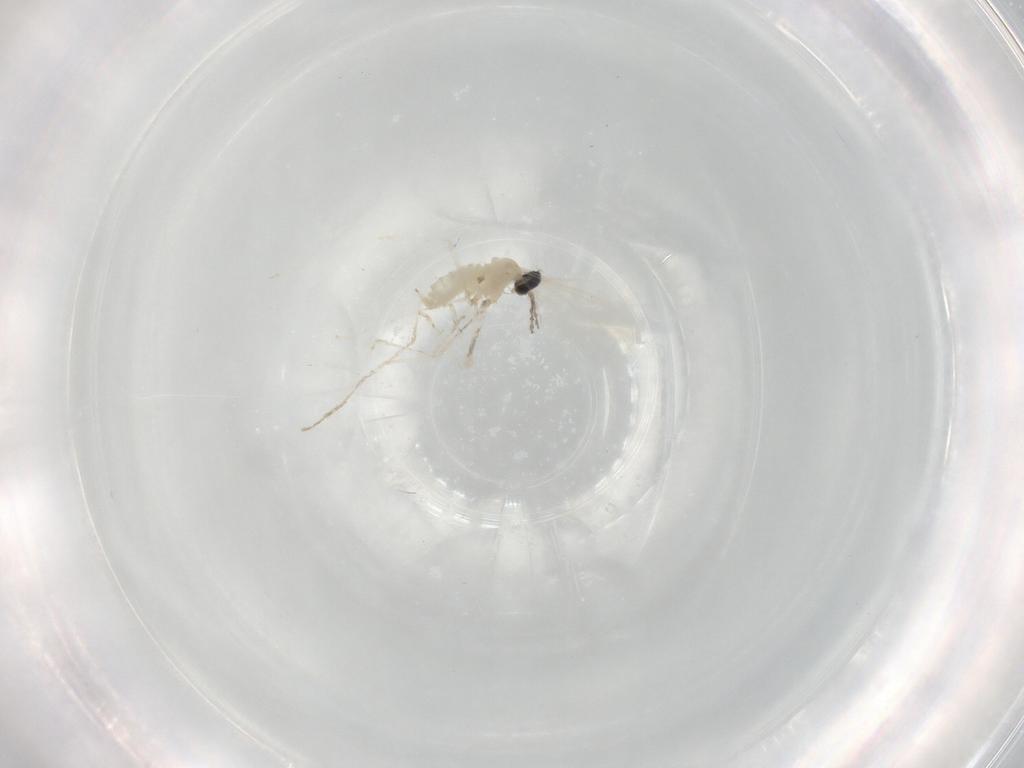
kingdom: Animalia
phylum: Arthropoda
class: Insecta
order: Diptera
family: Cecidomyiidae
